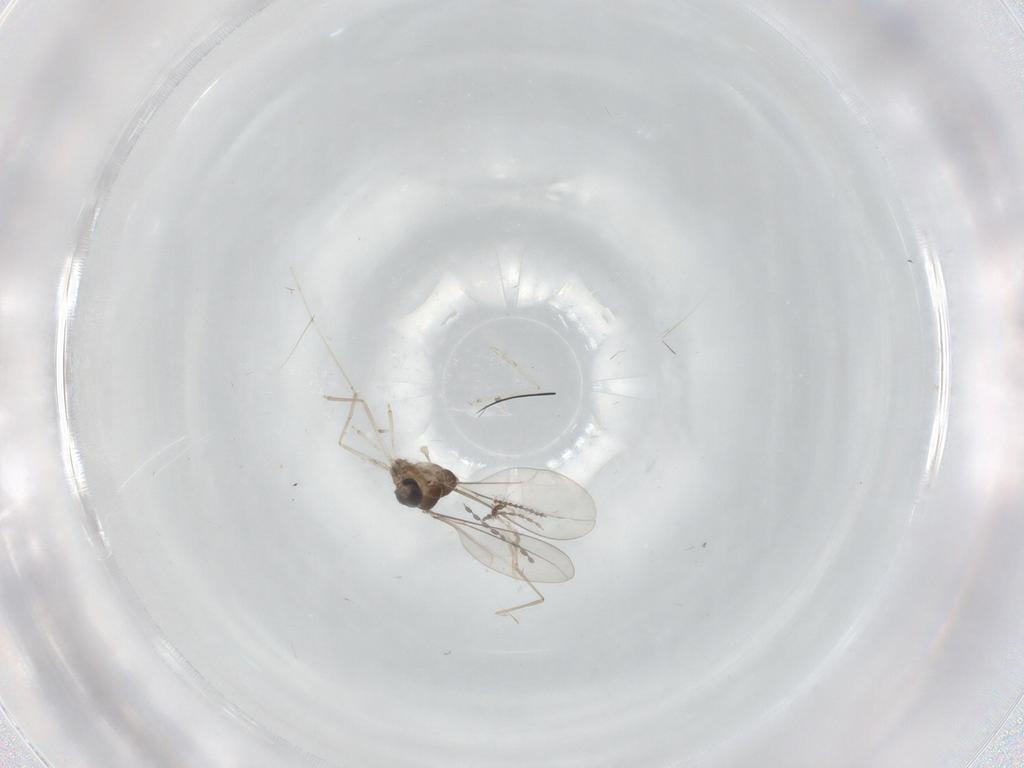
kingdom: Animalia
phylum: Arthropoda
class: Insecta
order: Diptera
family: Cecidomyiidae
